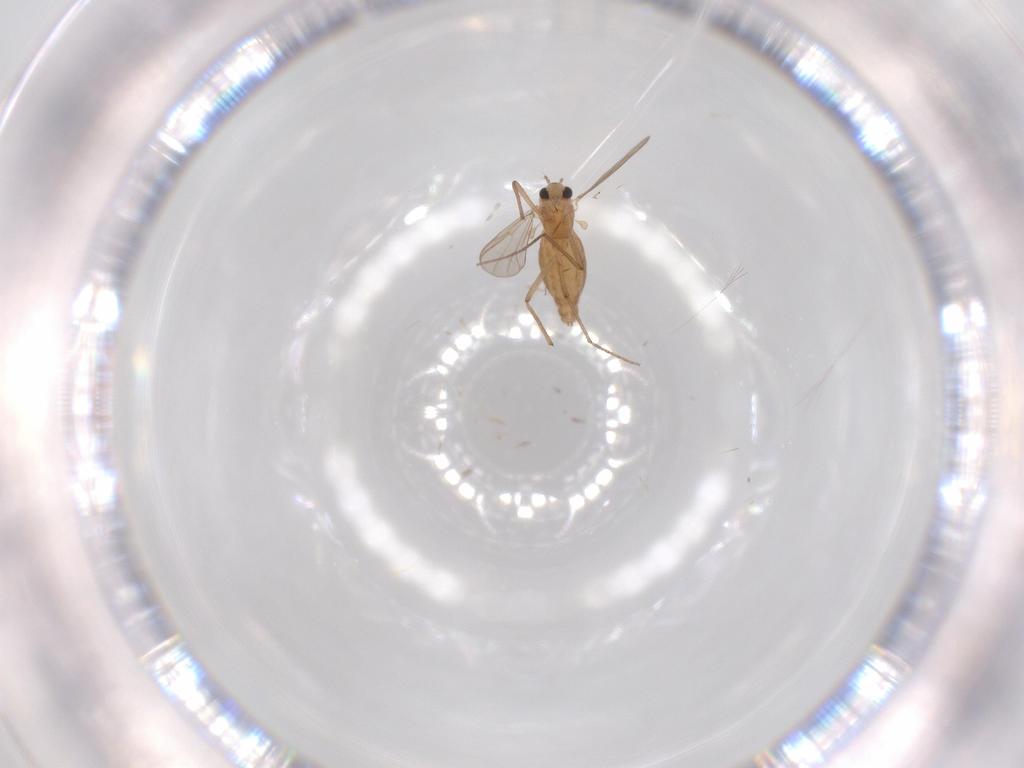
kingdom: Animalia
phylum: Arthropoda
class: Insecta
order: Diptera
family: Chironomidae
